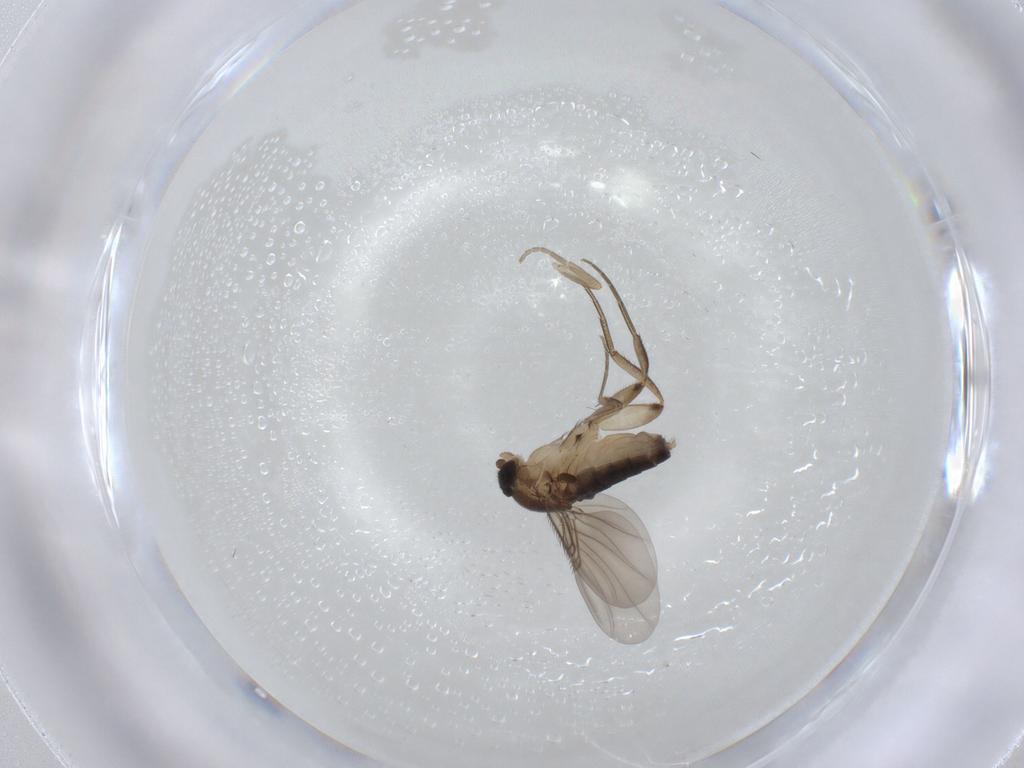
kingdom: Animalia
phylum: Arthropoda
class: Insecta
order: Diptera
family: Phoridae
